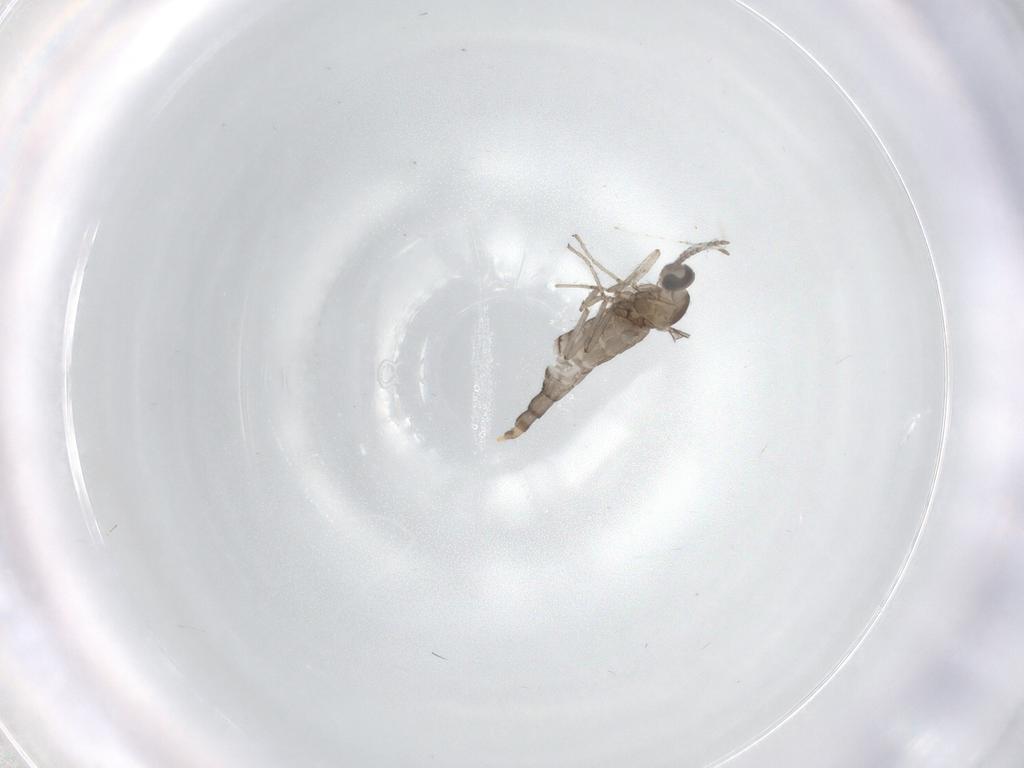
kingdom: Animalia
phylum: Arthropoda
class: Insecta
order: Diptera
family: Cecidomyiidae
